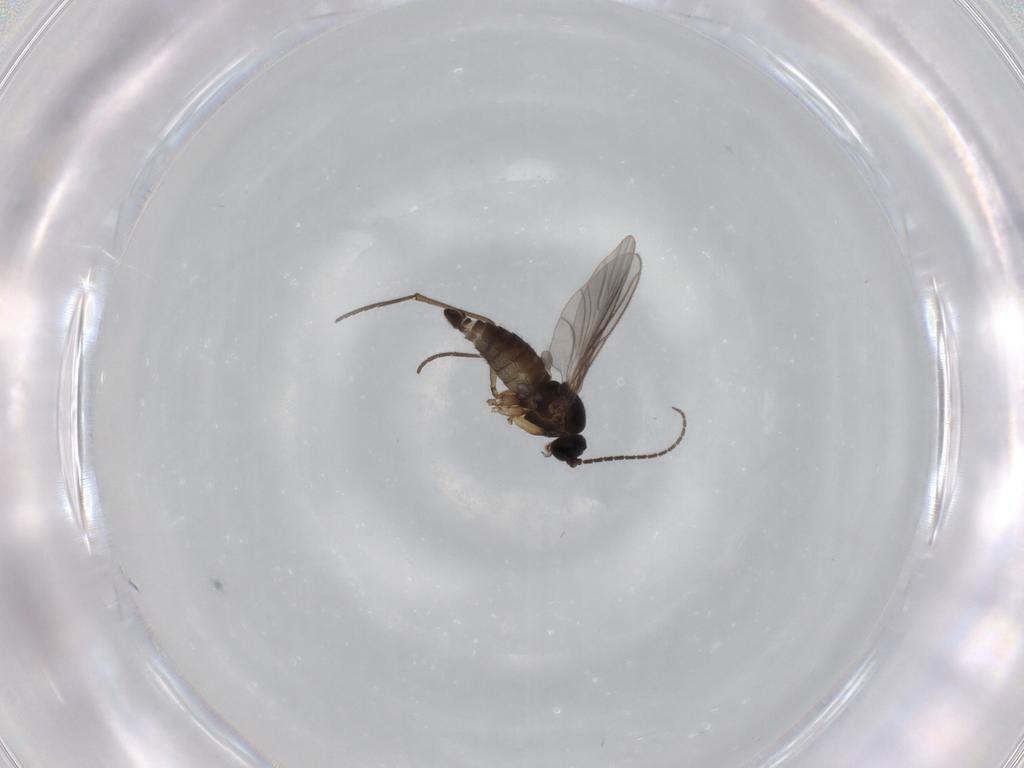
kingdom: Animalia
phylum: Arthropoda
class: Insecta
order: Diptera
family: Sciaridae
